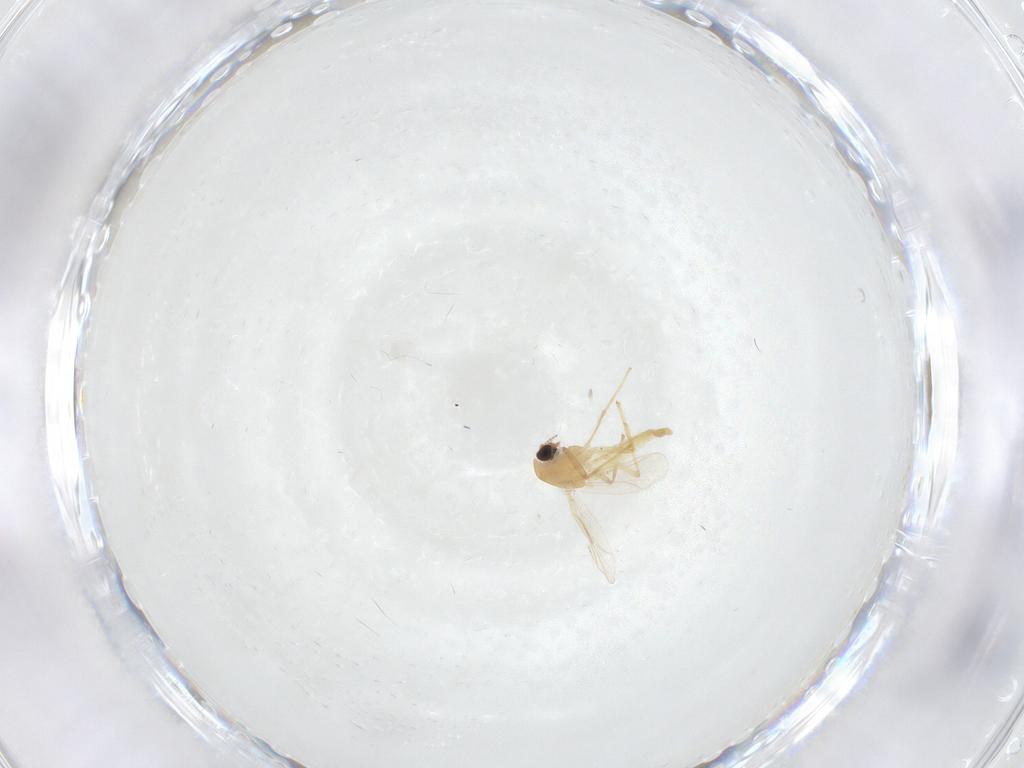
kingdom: Animalia
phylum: Arthropoda
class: Insecta
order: Diptera
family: Chironomidae
